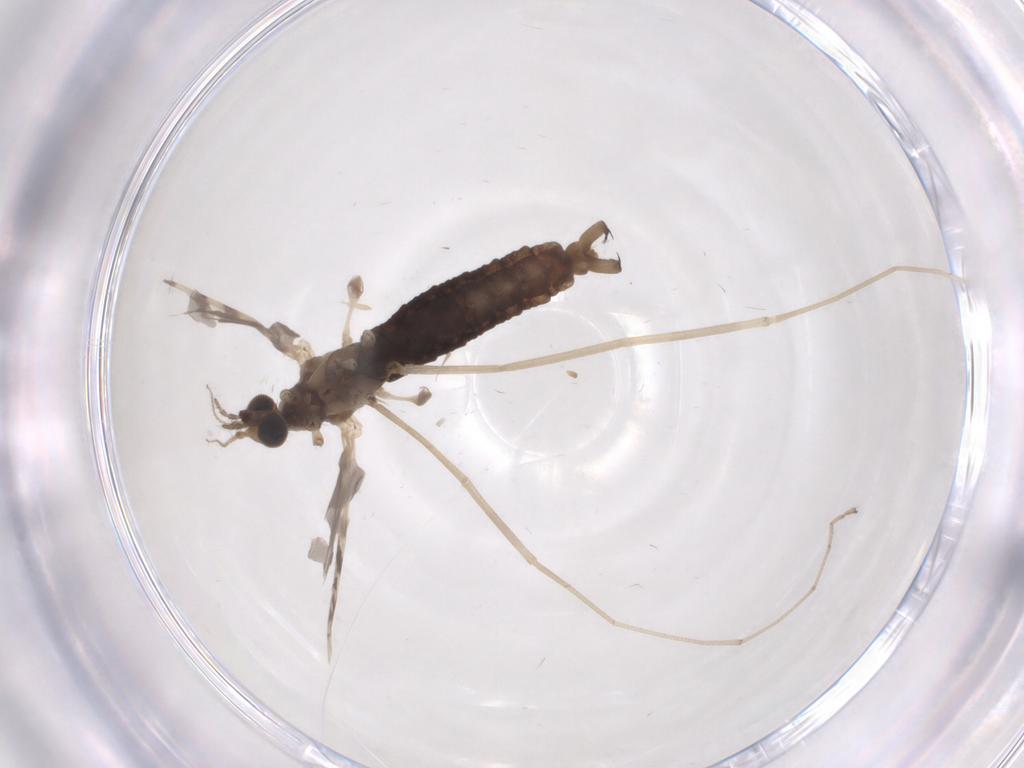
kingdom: Animalia
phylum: Arthropoda
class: Insecta
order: Diptera
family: Limoniidae
